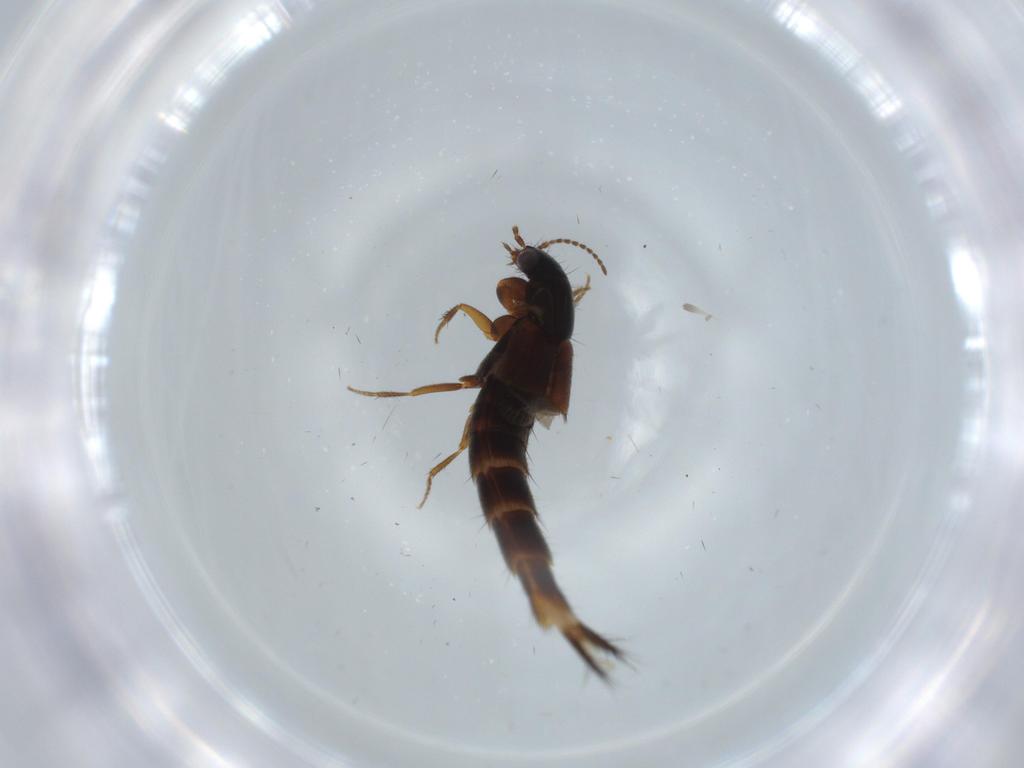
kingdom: Animalia
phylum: Arthropoda
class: Insecta
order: Coleoptera
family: Staphylinidae
